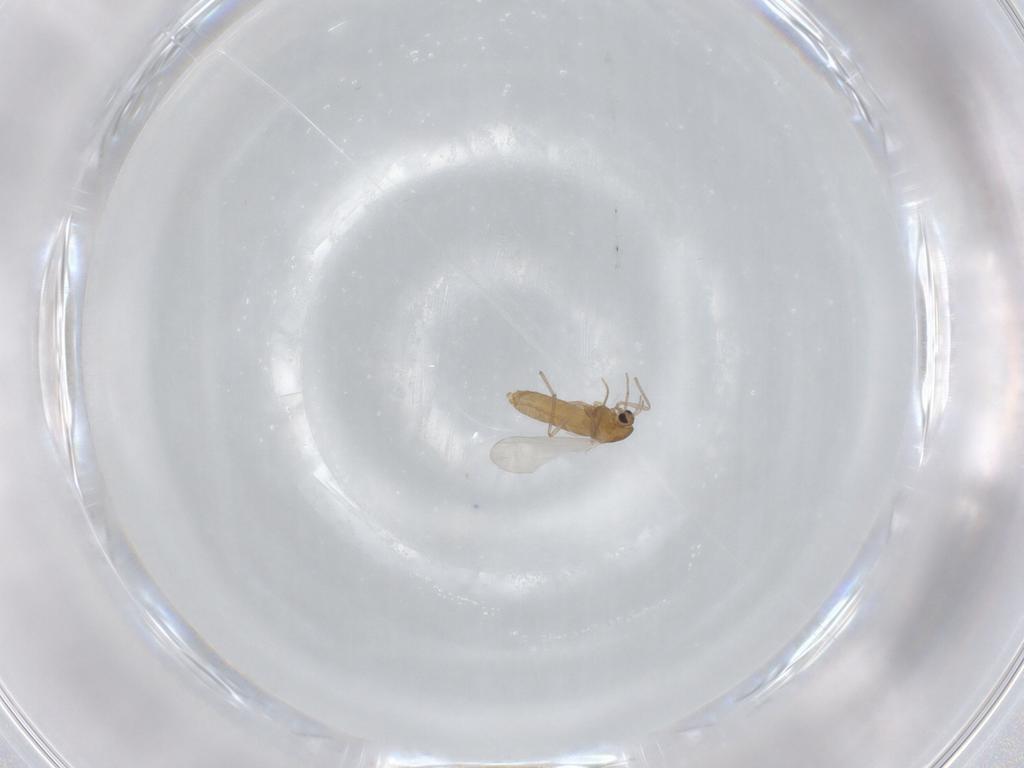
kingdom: Animalia
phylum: Arthropoda
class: Insecta
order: Diptera
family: Chironomidae
